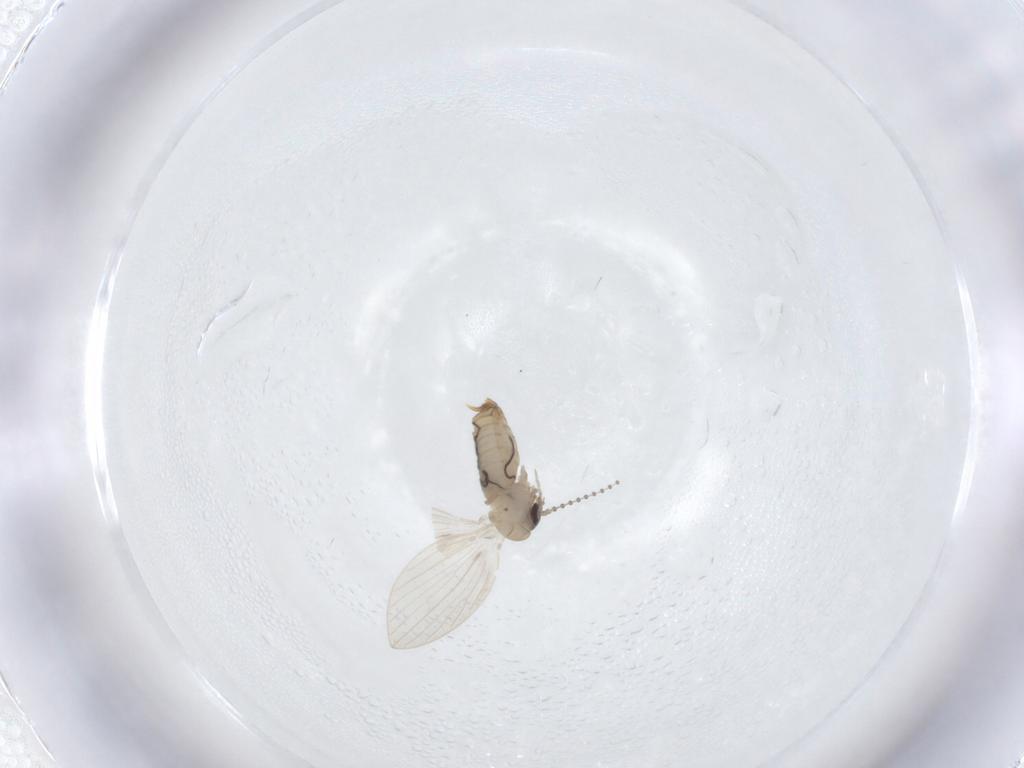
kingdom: Animalia
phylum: Arthropoda
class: Insecta
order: Diptera
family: Psychodidae
